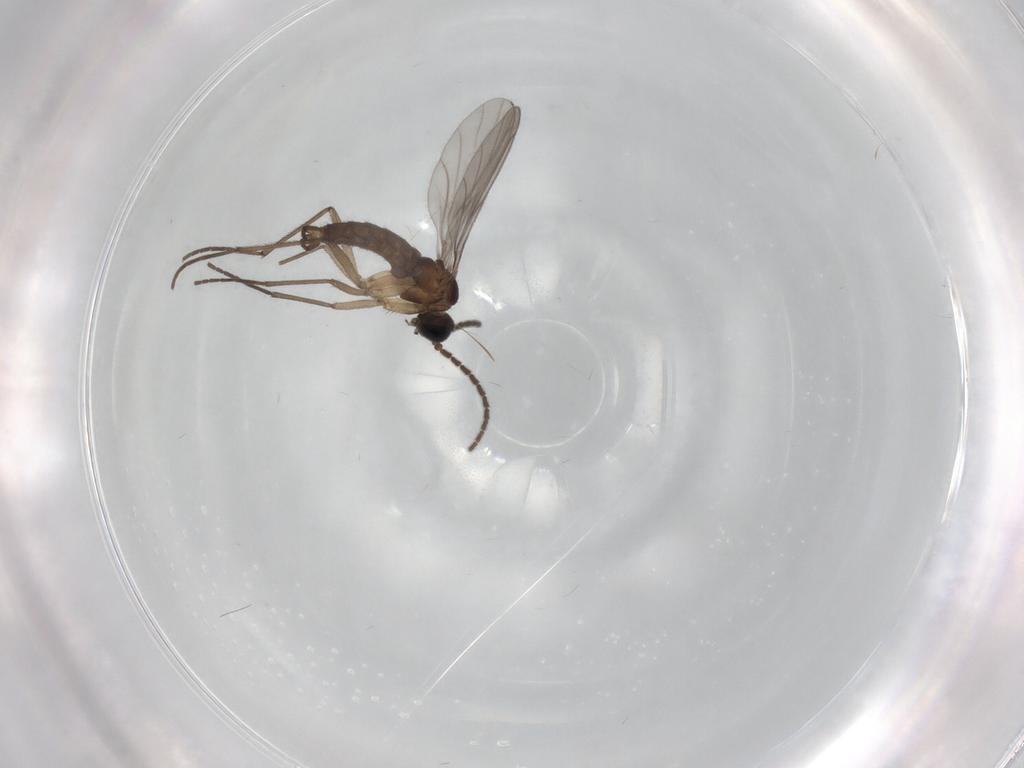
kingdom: Animalia
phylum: Arthropoda
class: Insecta
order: Diptera
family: Sciaridae
